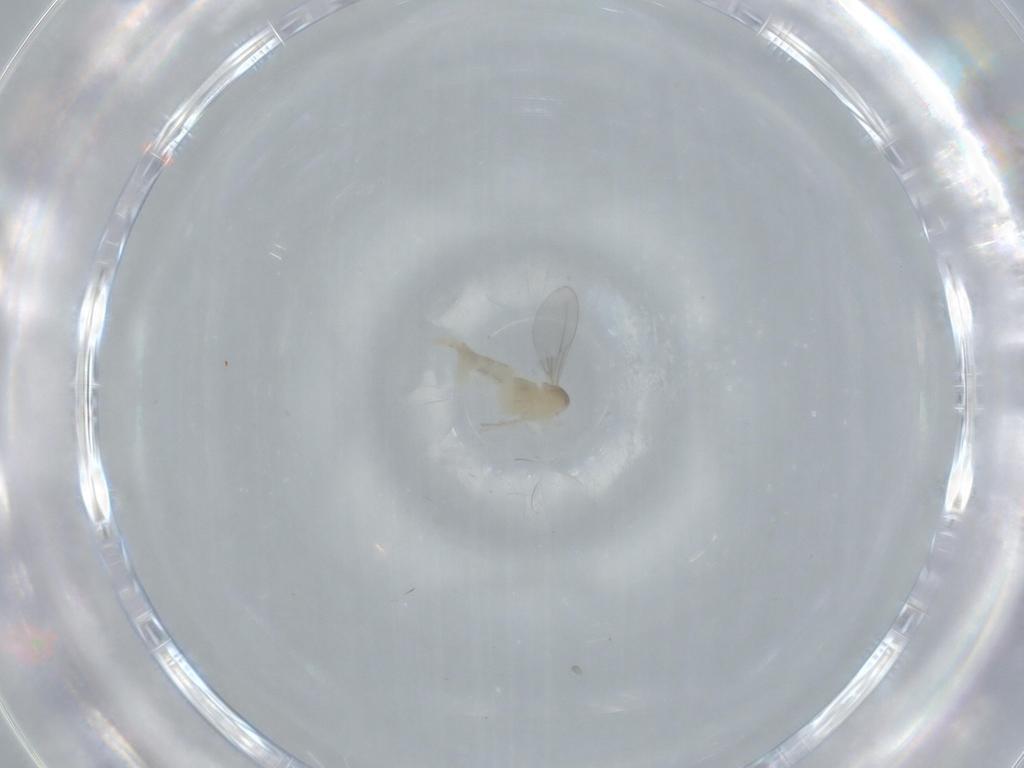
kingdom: Animalia
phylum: Arthropoda
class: Insecta
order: Diptera
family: Cecidomyiidae
